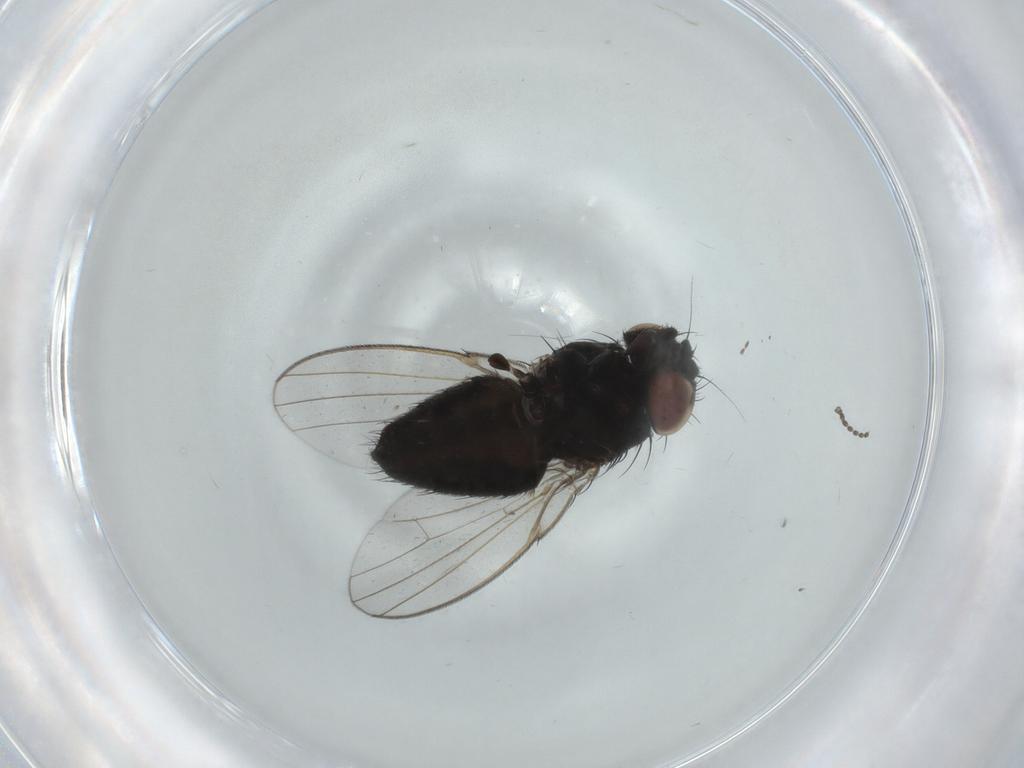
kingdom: Animalia
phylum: Arthropoda
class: Insecta
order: Diptera
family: Milichiidae
